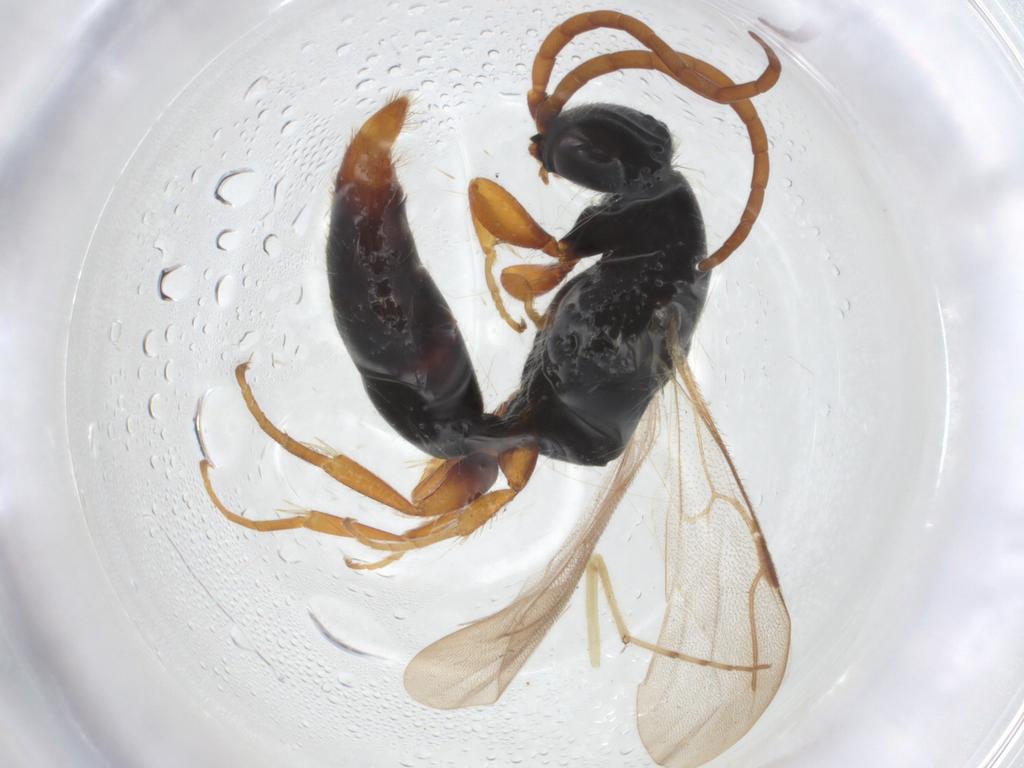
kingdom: Animalia
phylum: Arthropoda
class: Insecta
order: Hymenoptera
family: Bethylidae
